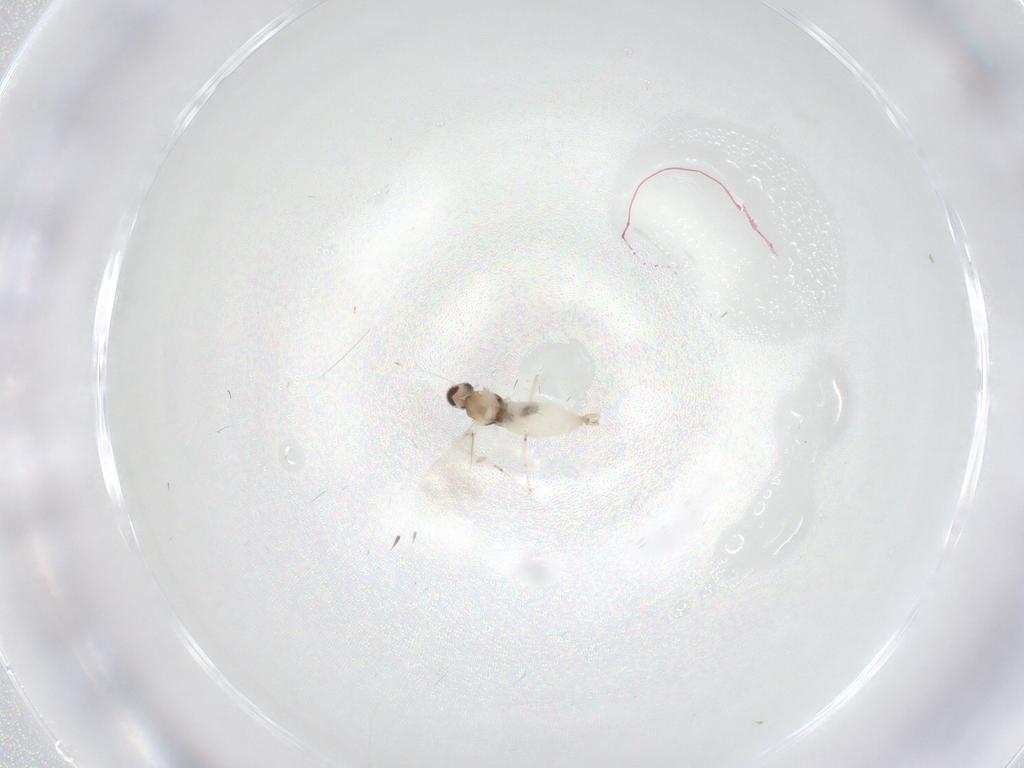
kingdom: Animalia
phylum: Arthropoda
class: Insecta
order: Diptera
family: Cecidomyiidae
